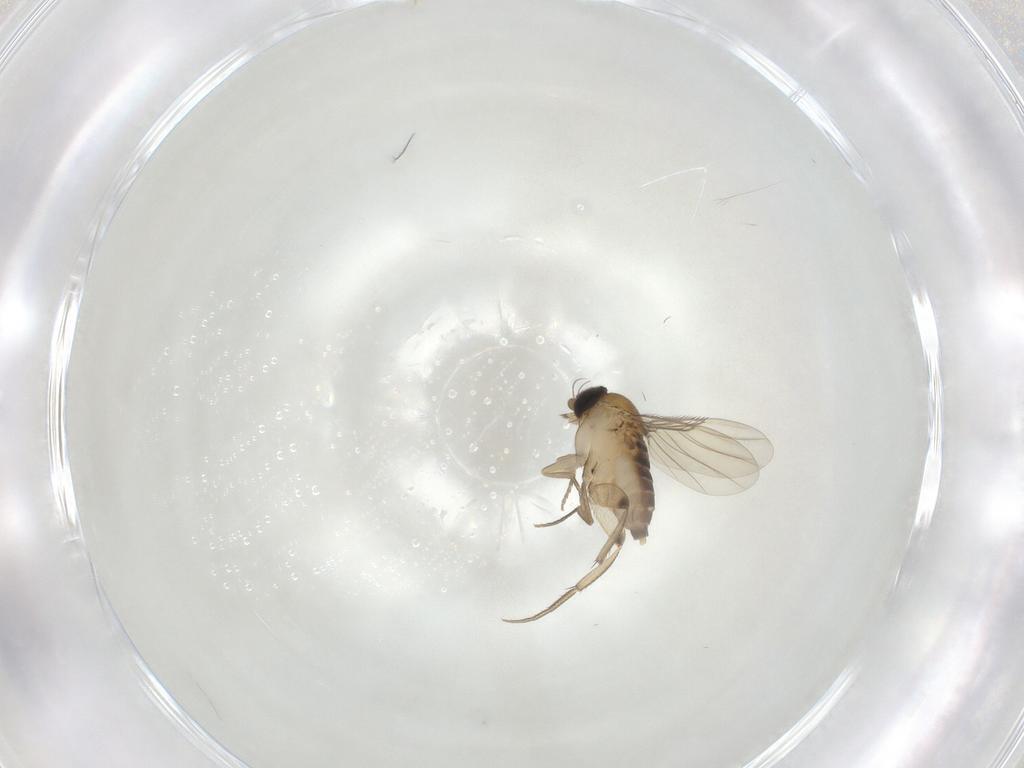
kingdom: Animalia
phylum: Arthropoda
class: Insecta
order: Diptera
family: Phoridae
